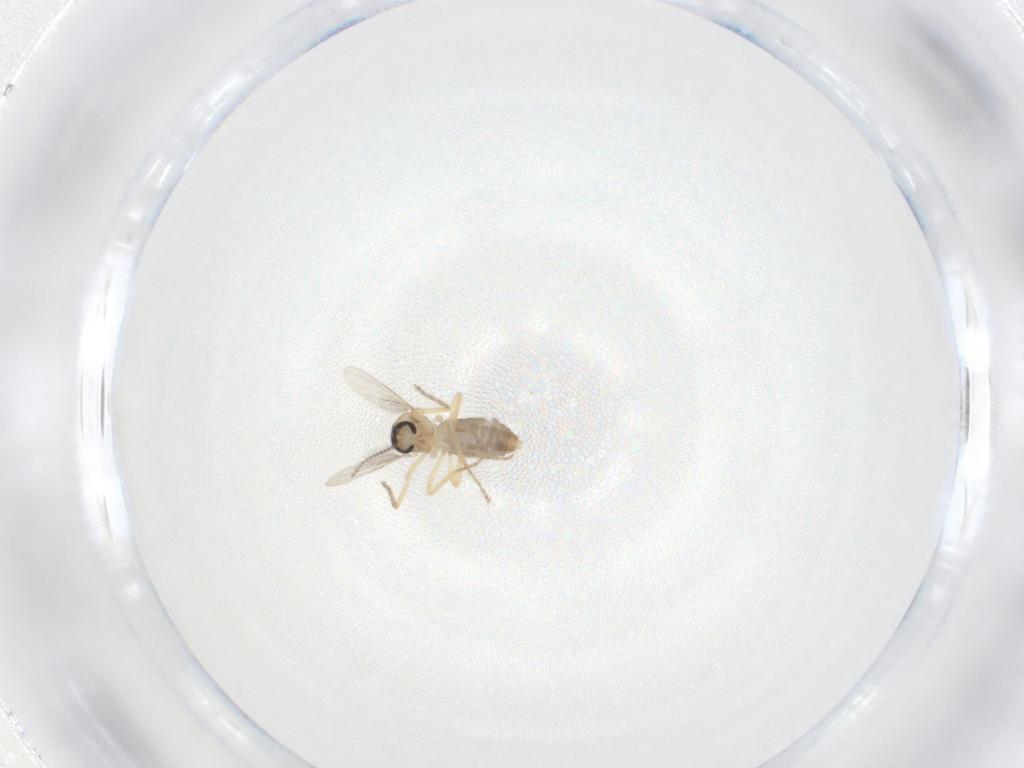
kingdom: Animalia
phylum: Arthropoda
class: Insecta
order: Diptera
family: Ceratopogonidae
